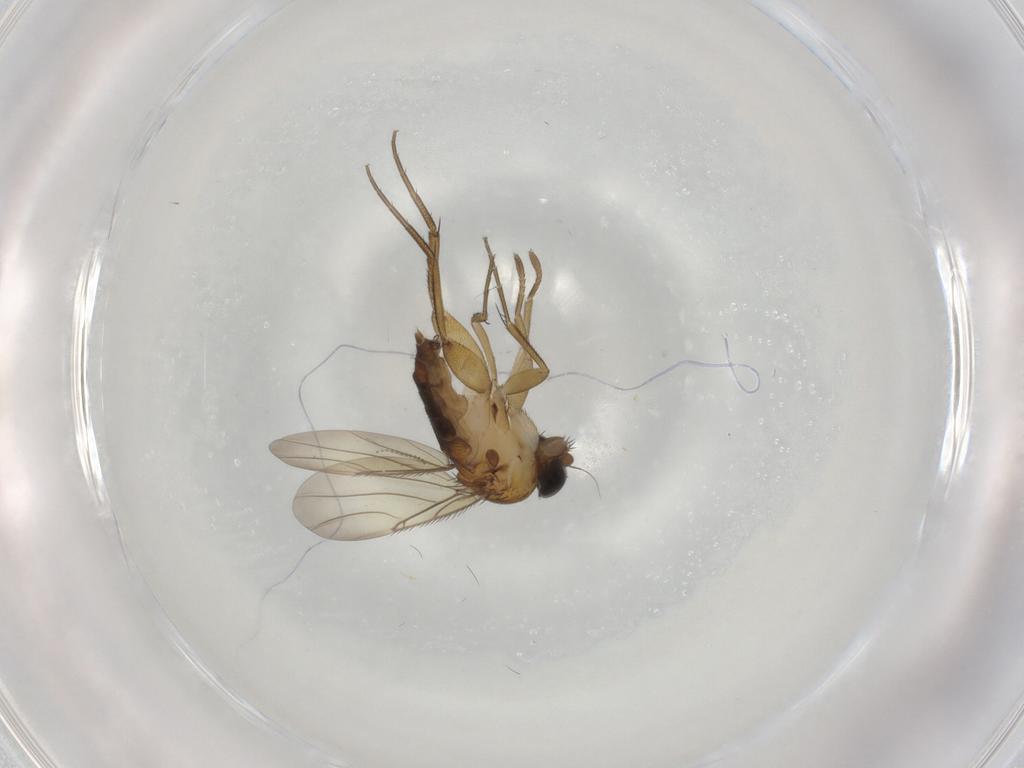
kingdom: Animalia
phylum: Arthropoda
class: Insecta
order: Diptera
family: Phoridae
